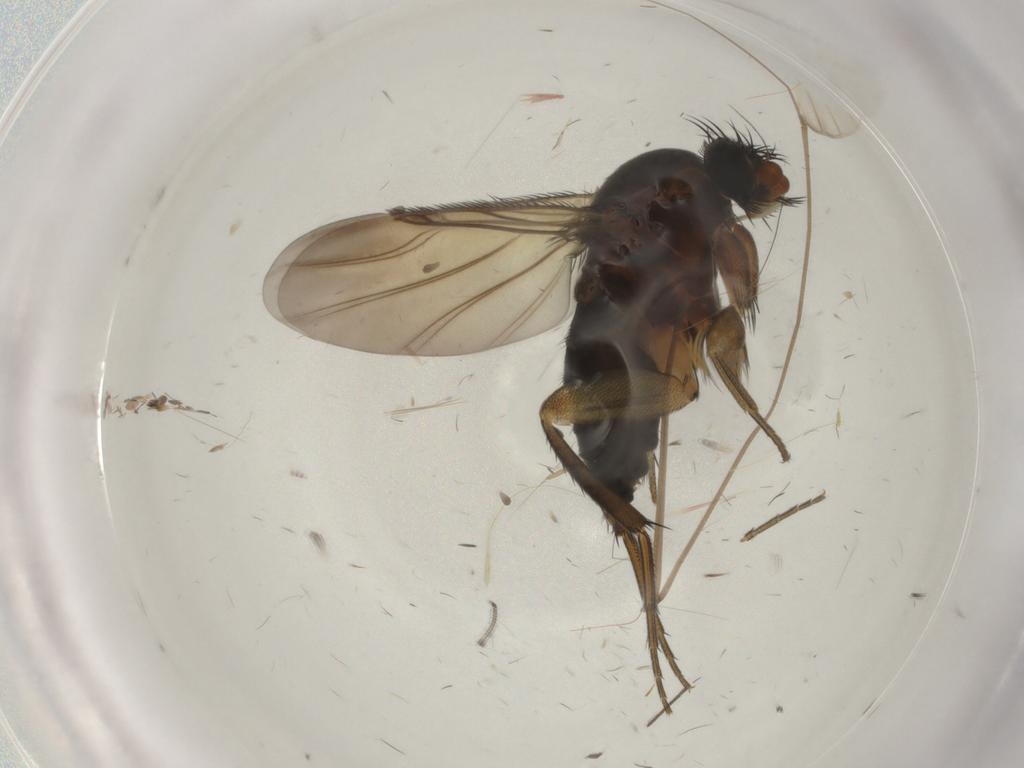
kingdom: Animalia
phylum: Arthropoda
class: Insecta
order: Diptera
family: Phoridae
